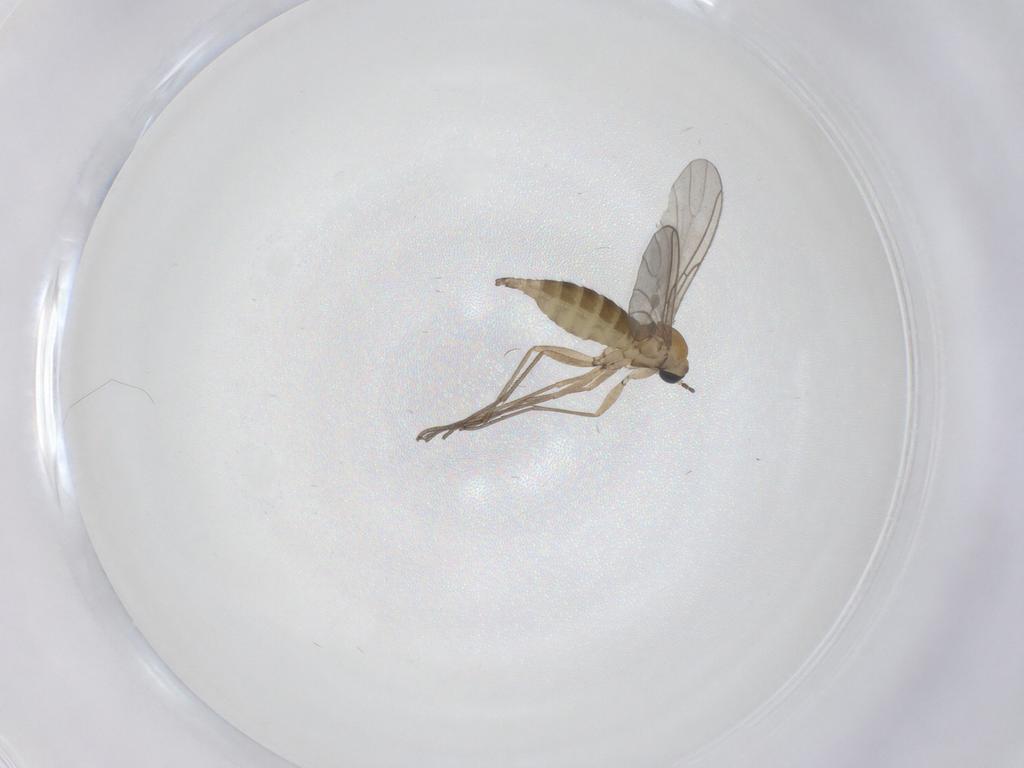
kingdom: Animalia
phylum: Arthropoda
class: Insecta
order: Diptera
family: Sciaridae
